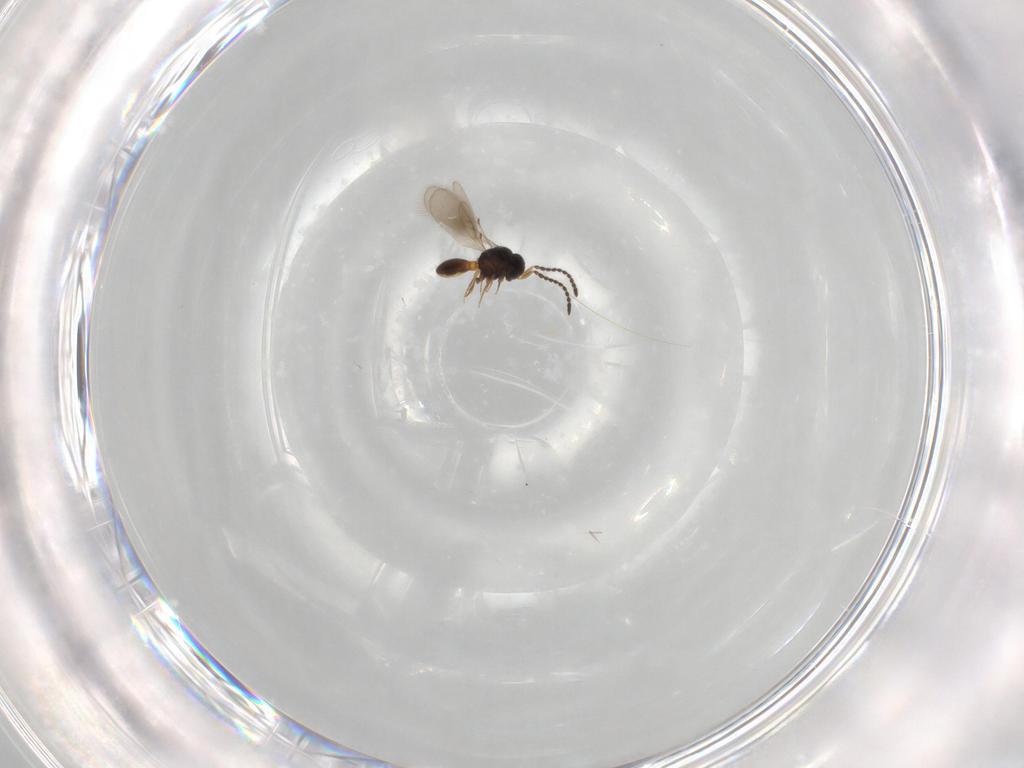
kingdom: Animalia
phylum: Arthropoda
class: Insecta
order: Hymenoptera
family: Scelionidae
